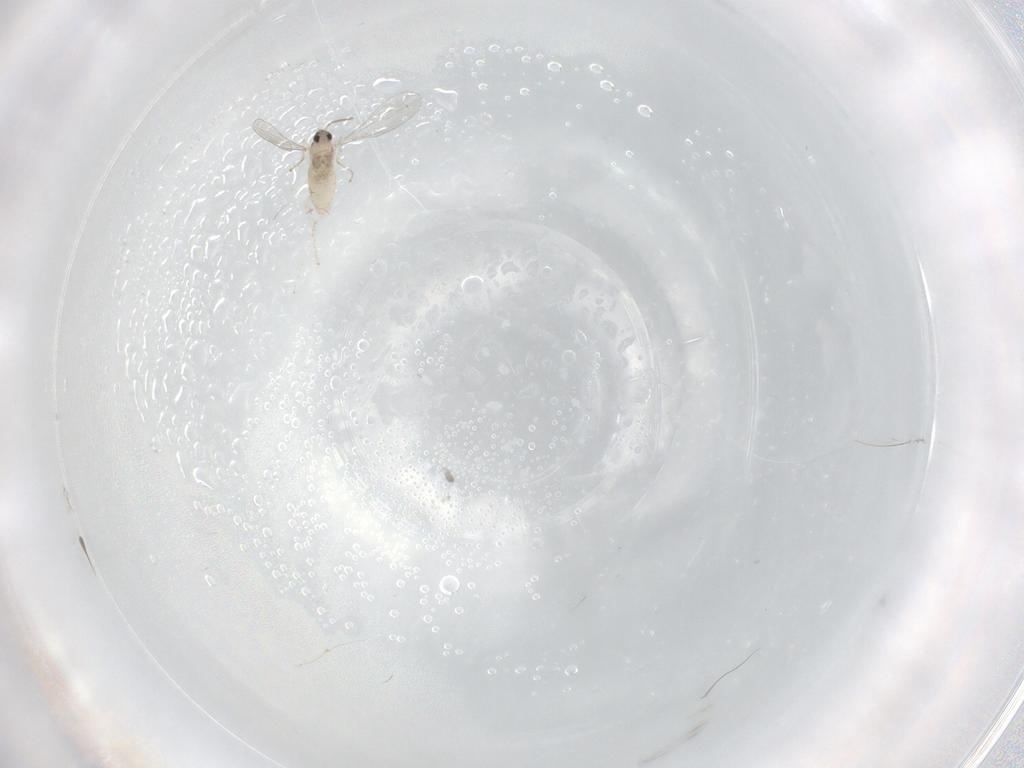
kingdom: Animalia
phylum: Arthropoda
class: Insecta
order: Diptera
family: Cecidomyiidae
